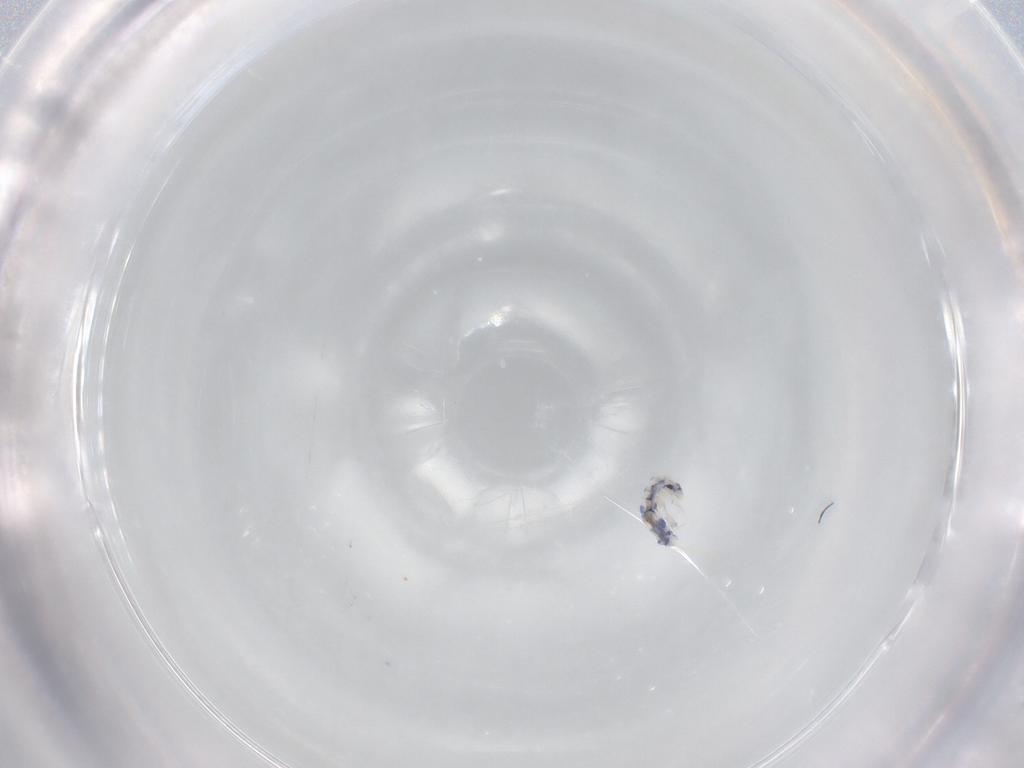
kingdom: Animalia
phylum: Arthropoda
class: Collembola
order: Entomobryomorpha
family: Entomobryidae
